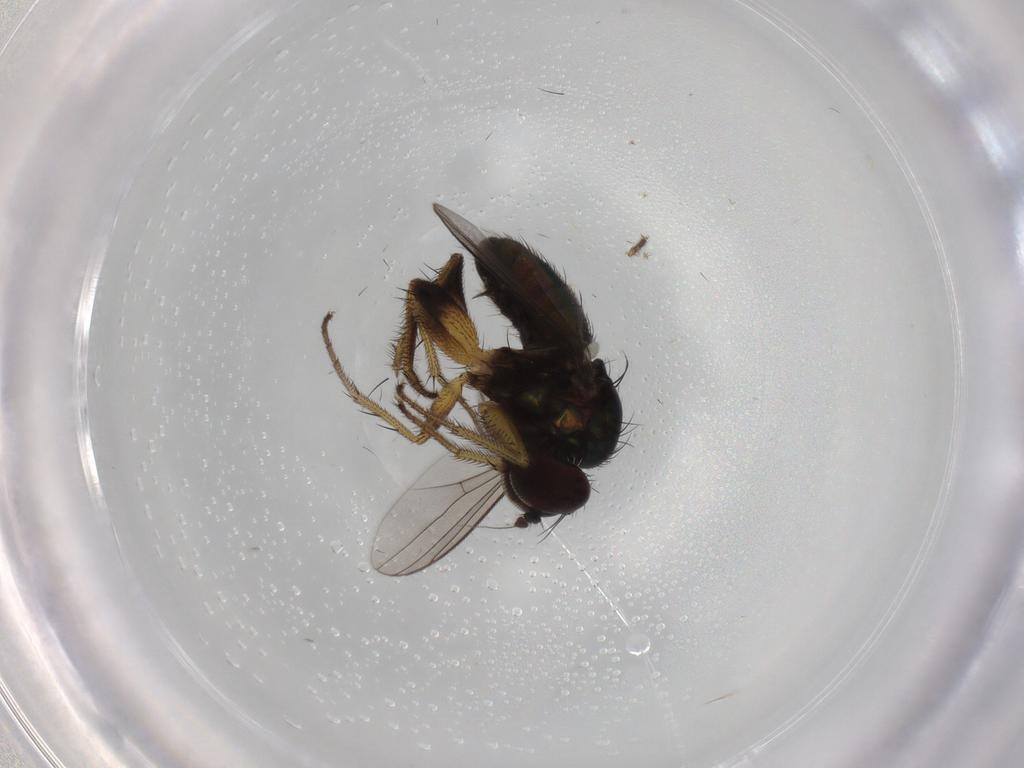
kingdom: Animalia
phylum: Arthropoda
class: Insecta
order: Diptera
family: Dolichopodidae
